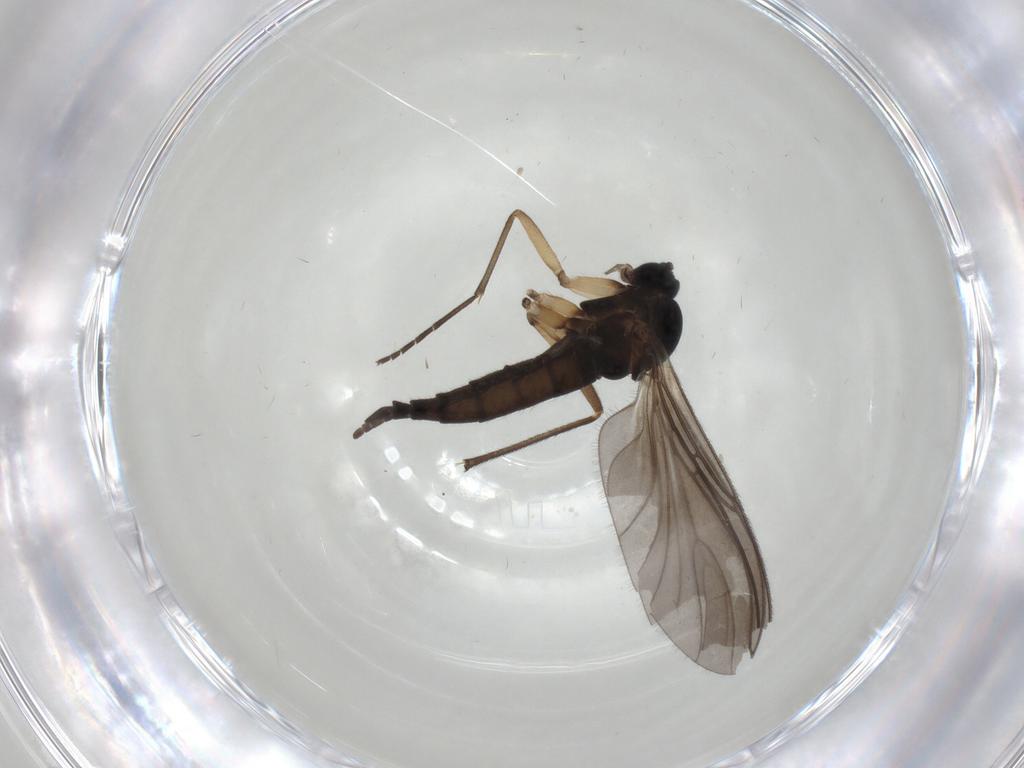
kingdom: Animalia
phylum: Arthropoda
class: Insecta
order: Diptera
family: Sciaridae
